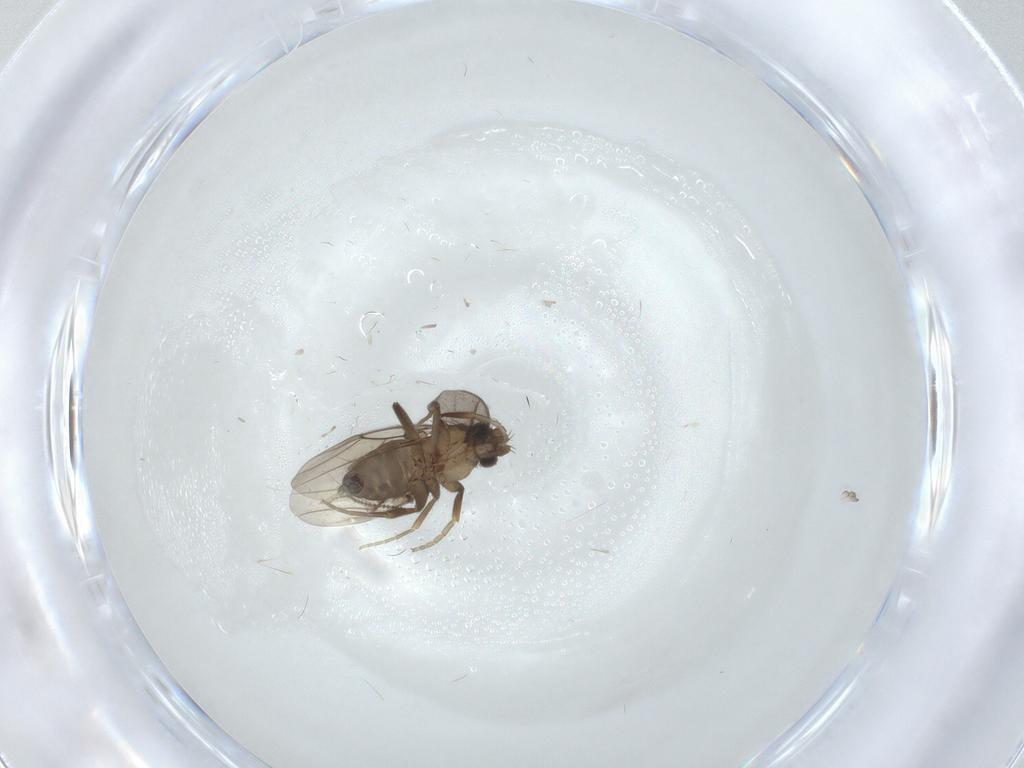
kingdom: Animalia
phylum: Arthropoda
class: Insecta
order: Diptera
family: Phoridae
